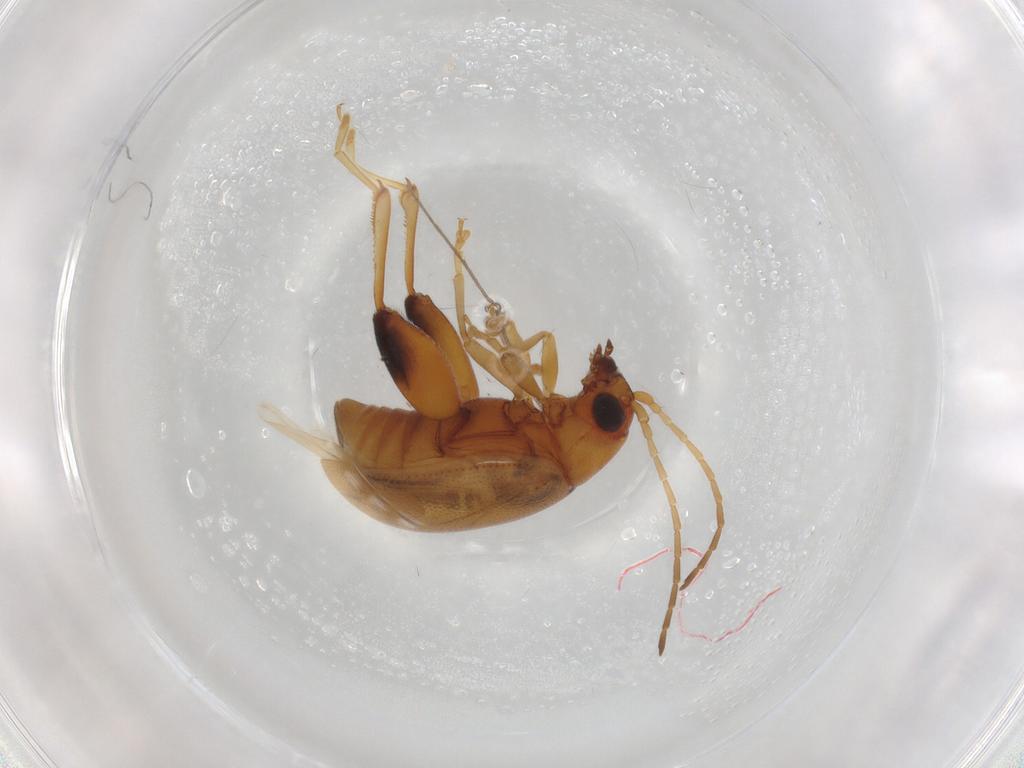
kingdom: Animalia
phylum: Arthropoda
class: Insecta
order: Coleoptera
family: Chrysomelidae
